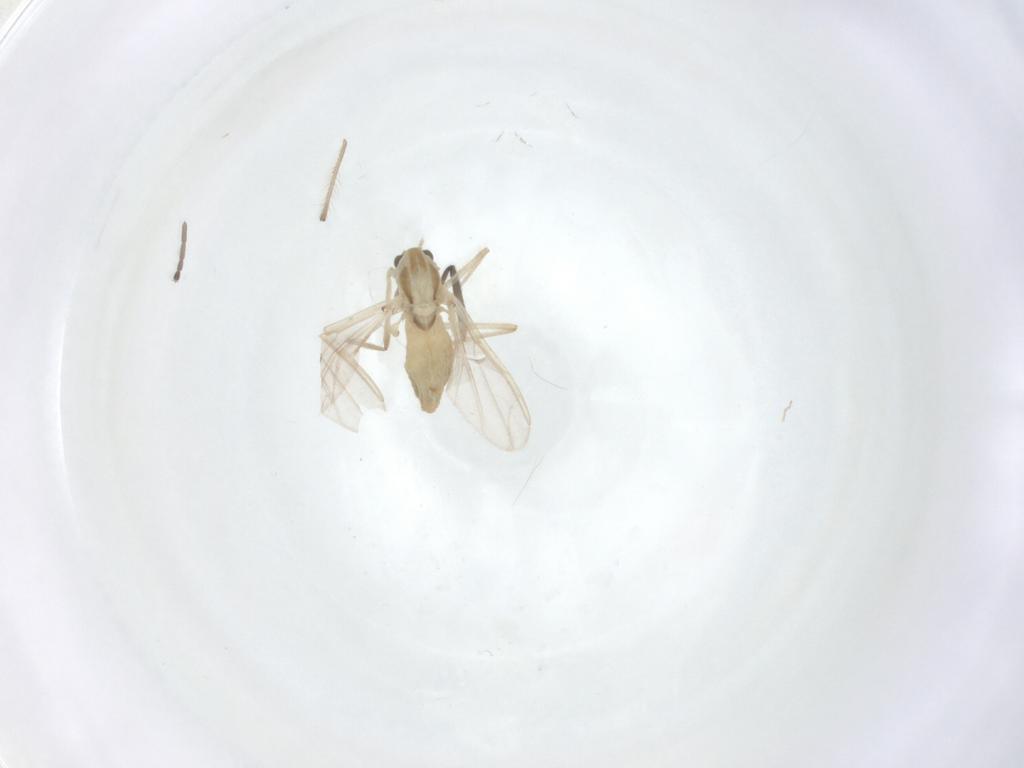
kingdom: Animalia
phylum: Arthropoda
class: Insecta
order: Diptera
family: Chironomidae
